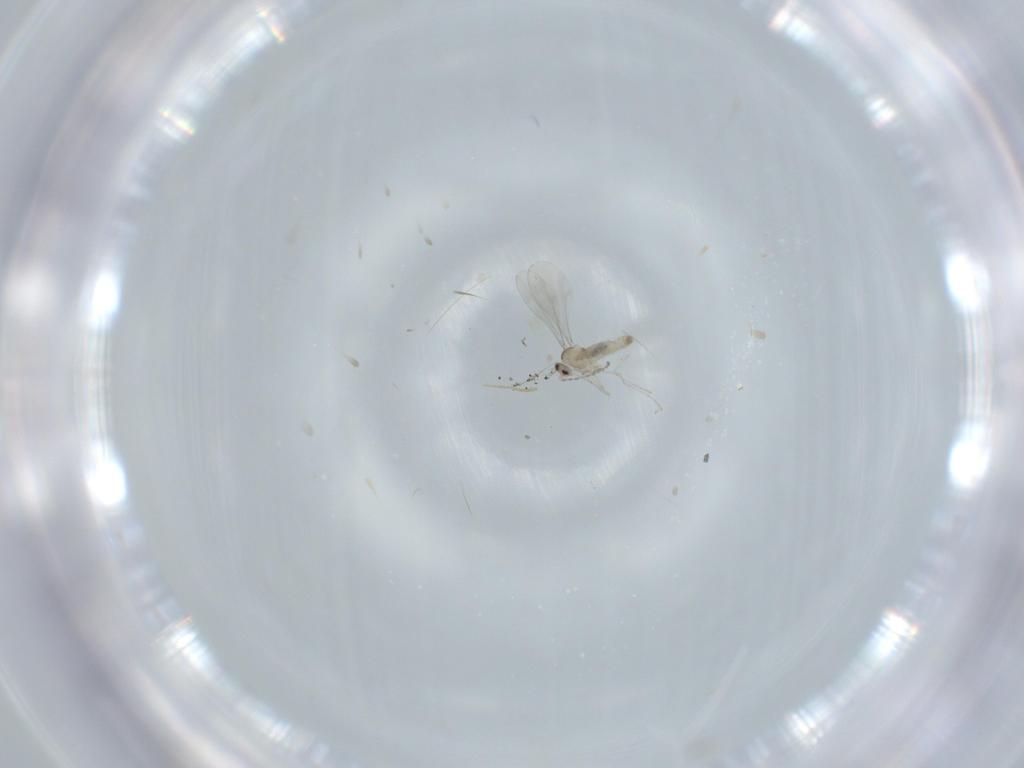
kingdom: Animalia
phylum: Arthropoda
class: Insecta
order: Diptera
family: Cecidomyiidae
